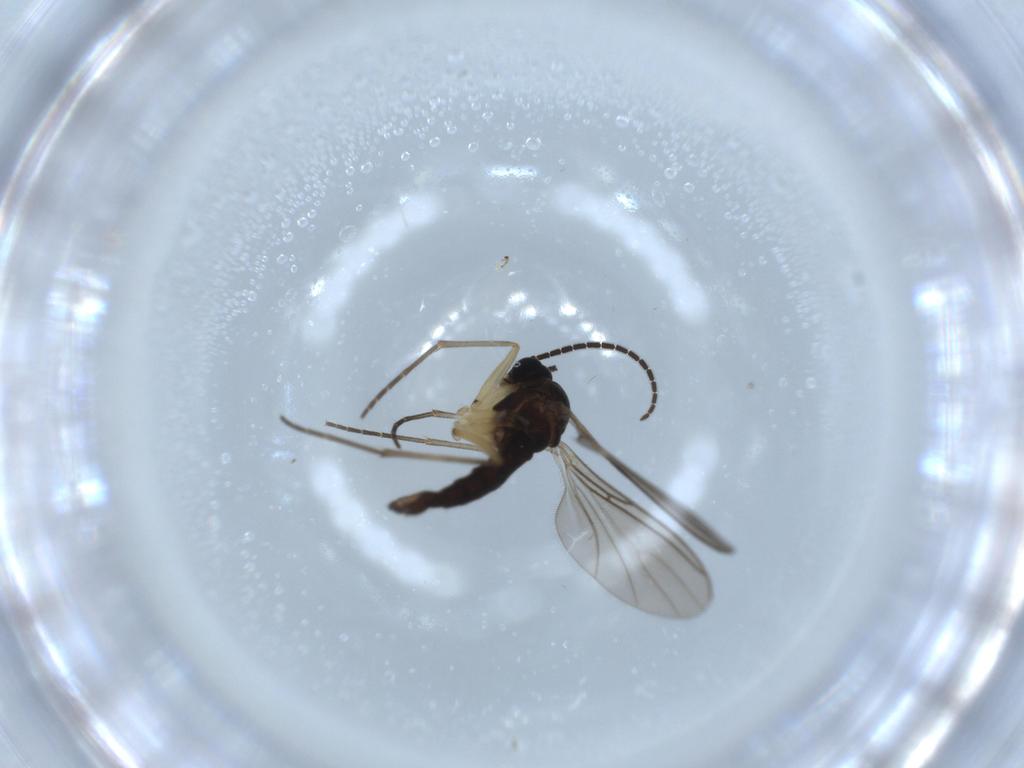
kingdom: Animalia
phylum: Arthropoda
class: Insecta
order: Diptera
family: Sciaridae
